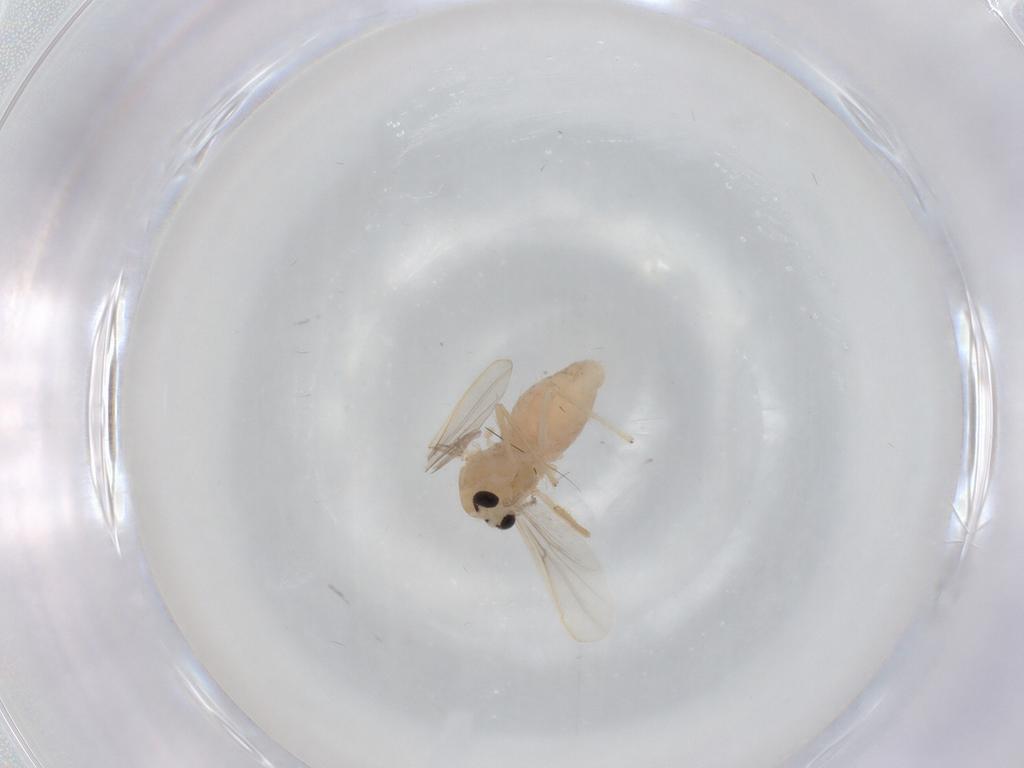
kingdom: Animalia
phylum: Arthropoda
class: Insecta
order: Diptera
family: Chironomidae
